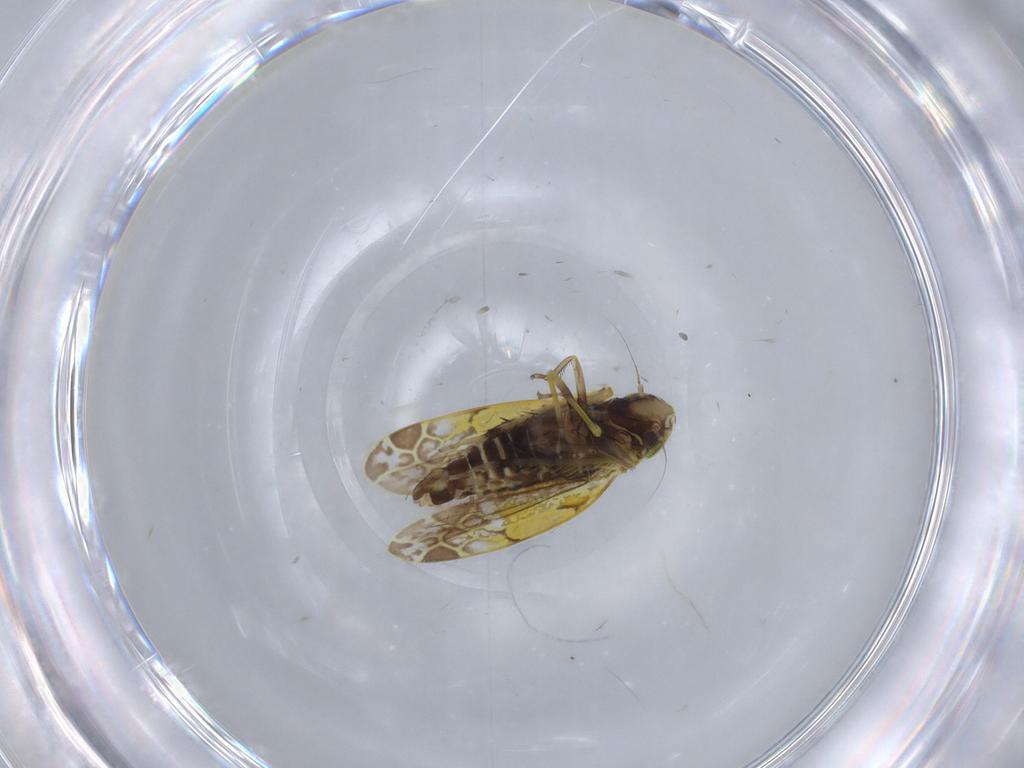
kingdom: Animalia
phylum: Arthropoda
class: Insecta
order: Hemiptera
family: Cicadellidae
